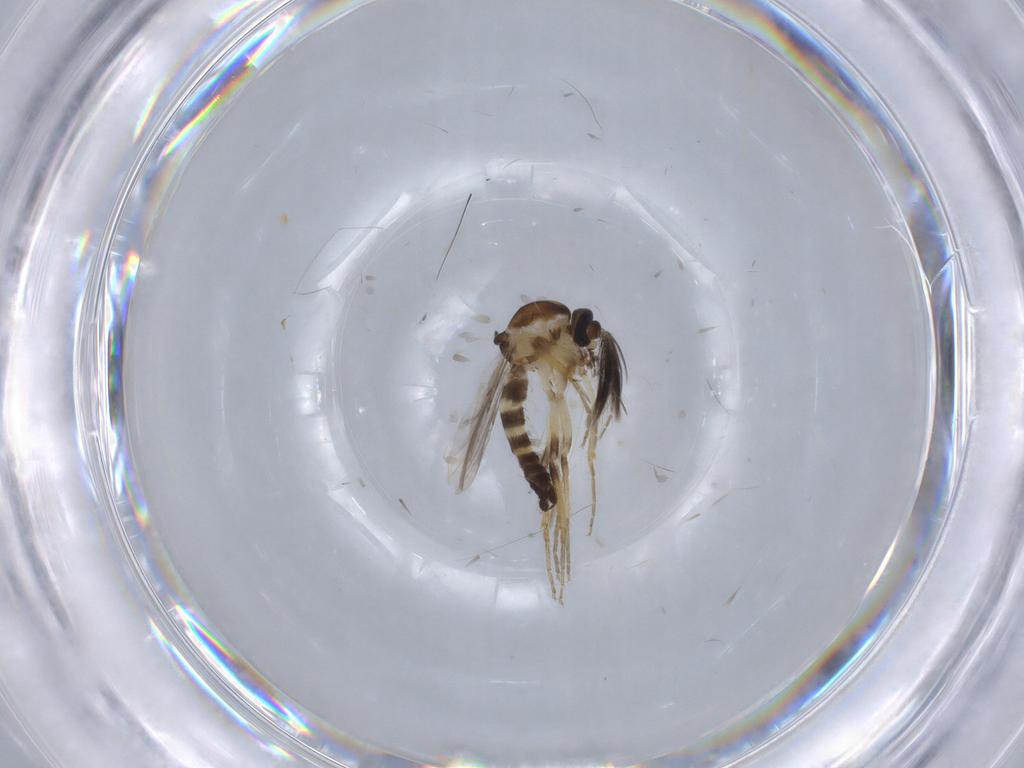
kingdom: Animalia
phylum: Arthropoda
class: Insecta
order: Diptera
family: Ceratopogonidae
